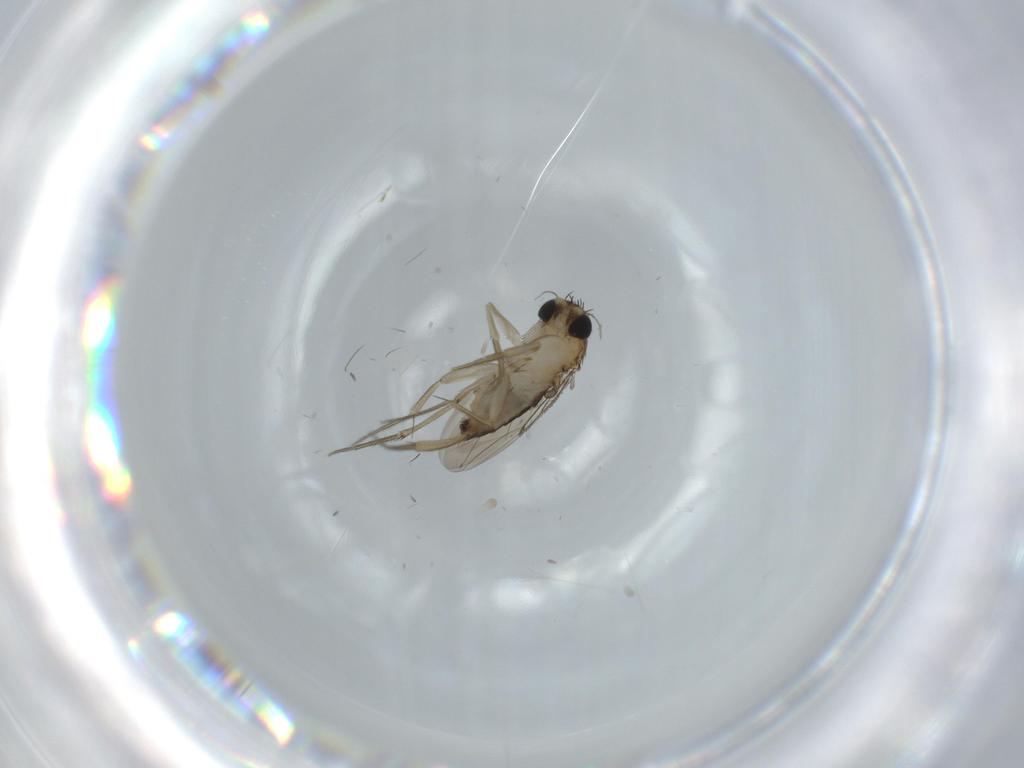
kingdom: Animalia
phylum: Arthropoda
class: Insecta
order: Diptera
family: Phoridae
